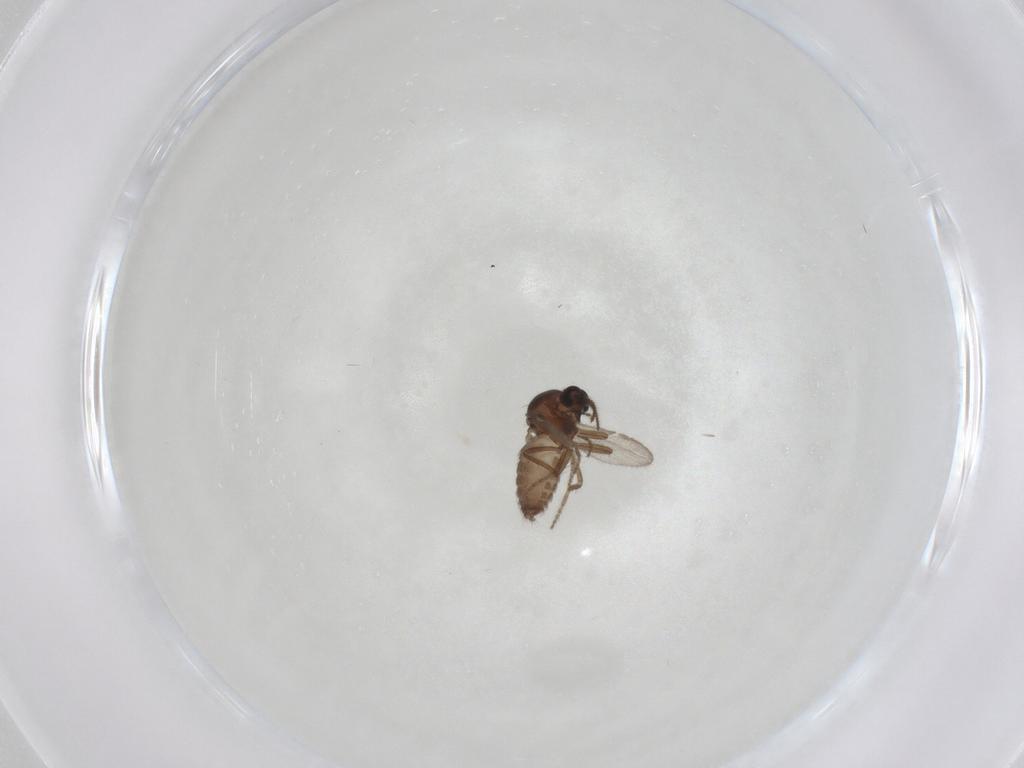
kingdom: Animalia
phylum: Arthropoda
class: Insecta
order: Diptera
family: Ceratopogonidae
